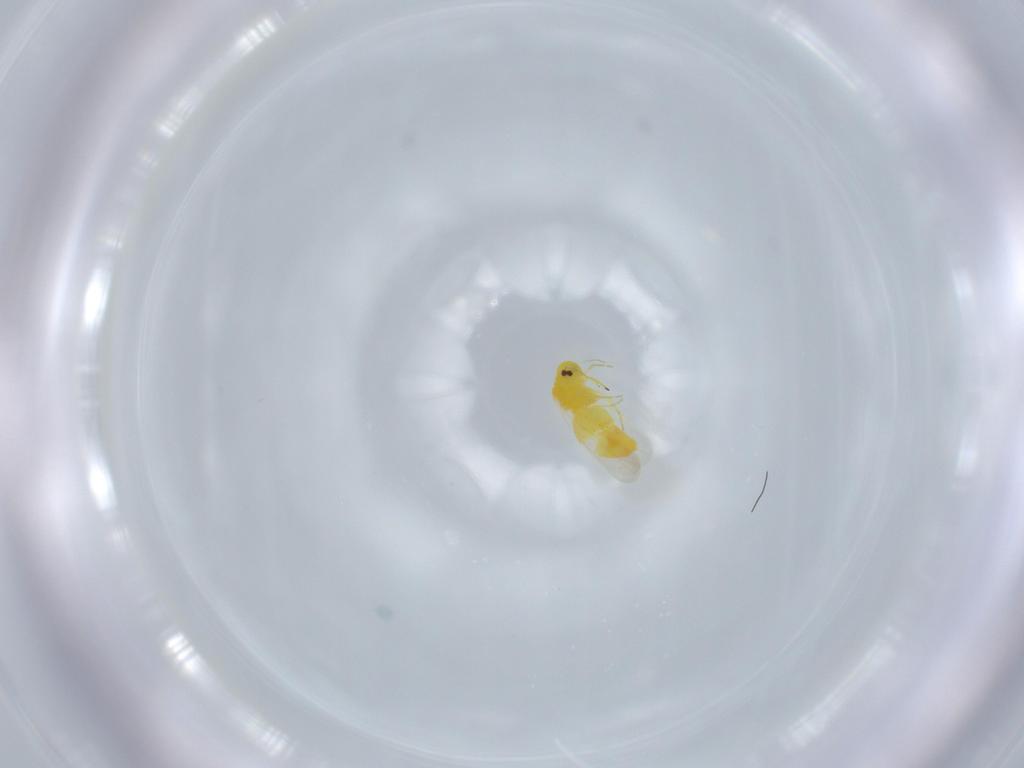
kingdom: Animalia
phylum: Arthropoda
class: Insecta
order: Hemiptera
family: Aleyrodidae
